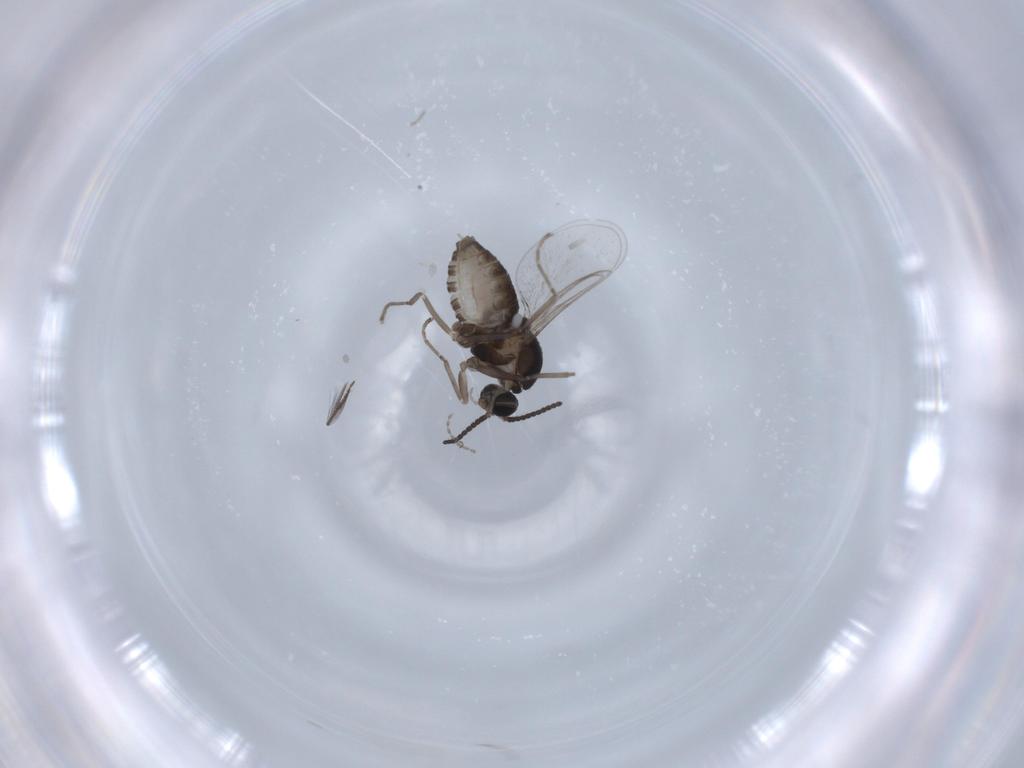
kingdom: Animalia
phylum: Arthropoda
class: Insecta
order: Diptera
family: Cecidomyiidae
